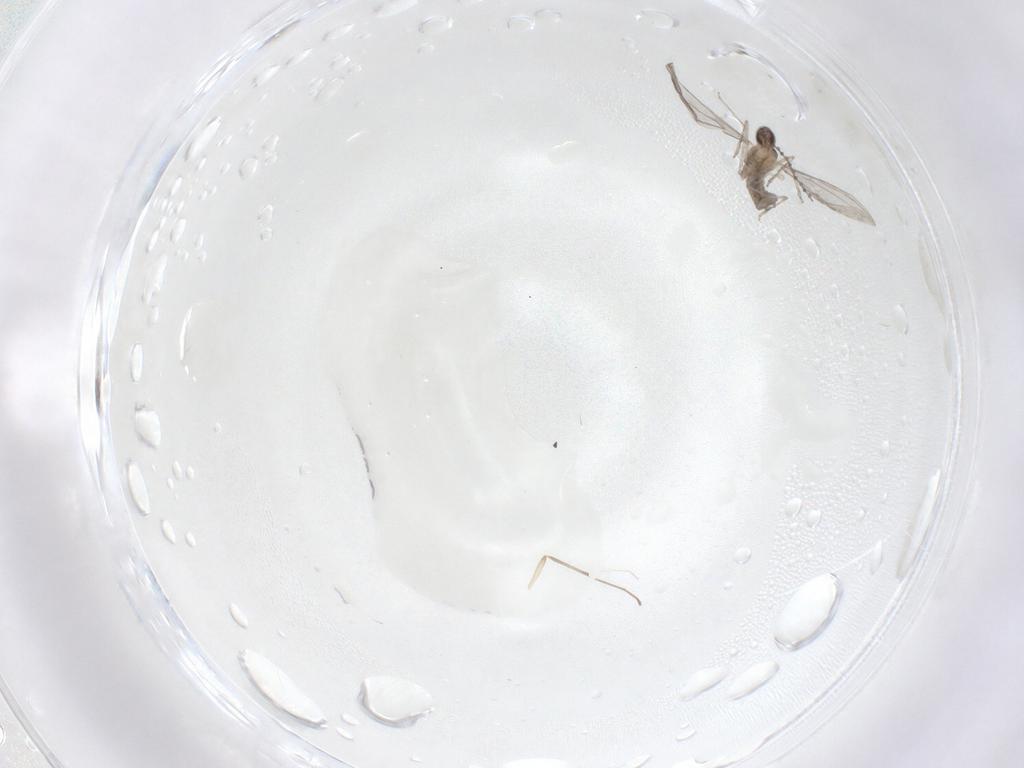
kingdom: Animalia
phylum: Arthropoda
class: Insecta
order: Diptera
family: Cecidomyiidae
